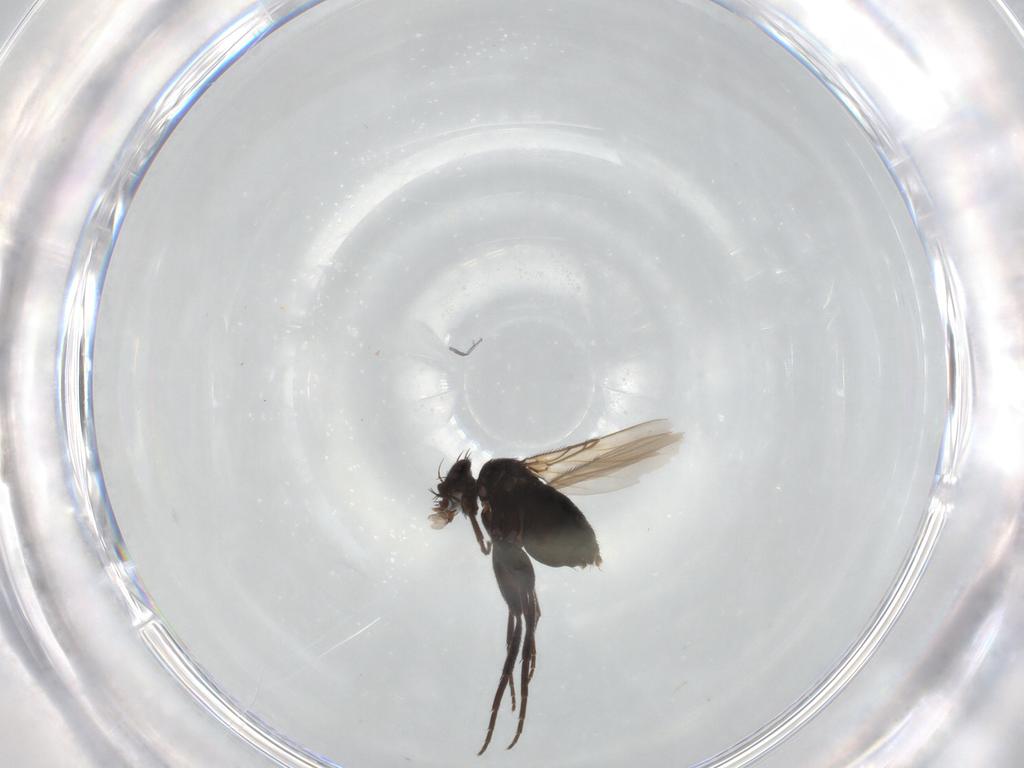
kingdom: Animalia
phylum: Arthropoda
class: Insecta
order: Diptera
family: Phoridae
